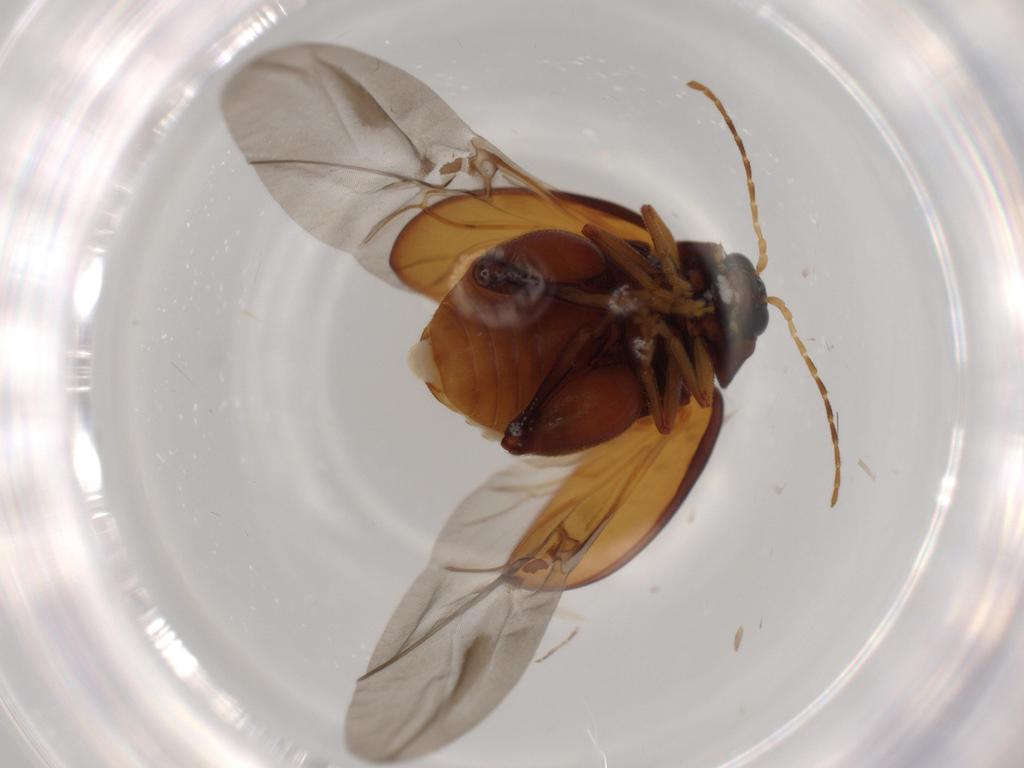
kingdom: Animalia
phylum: Arthropoda
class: Insecta
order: Coleoptera
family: Chrysomelidae
